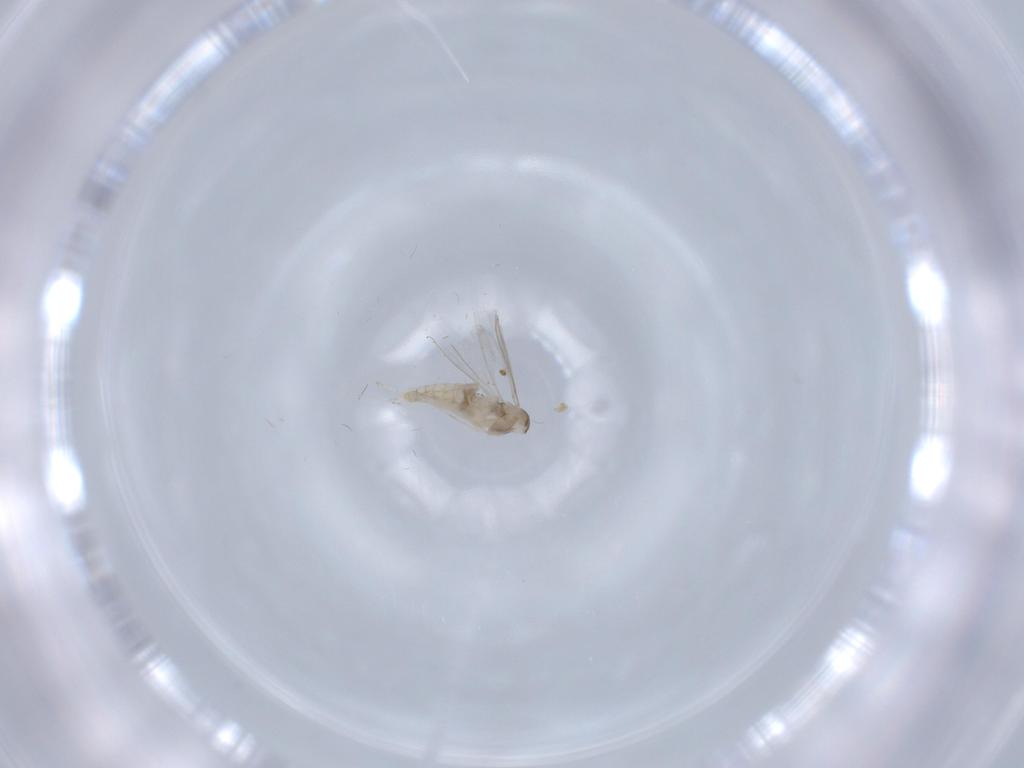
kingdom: Animalia
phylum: Arthropoda
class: Insecta
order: Diptera
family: Cecidomyiidae
